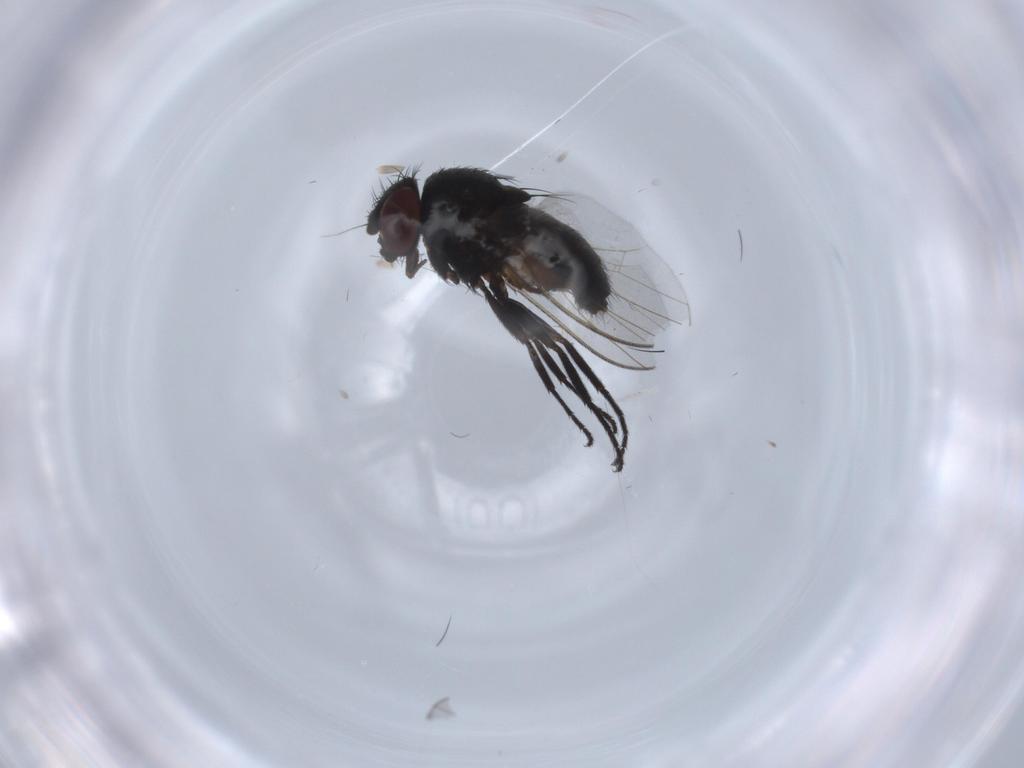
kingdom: Animalia
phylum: Arthropoda
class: Insecta
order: Diptera
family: Milichiidae
